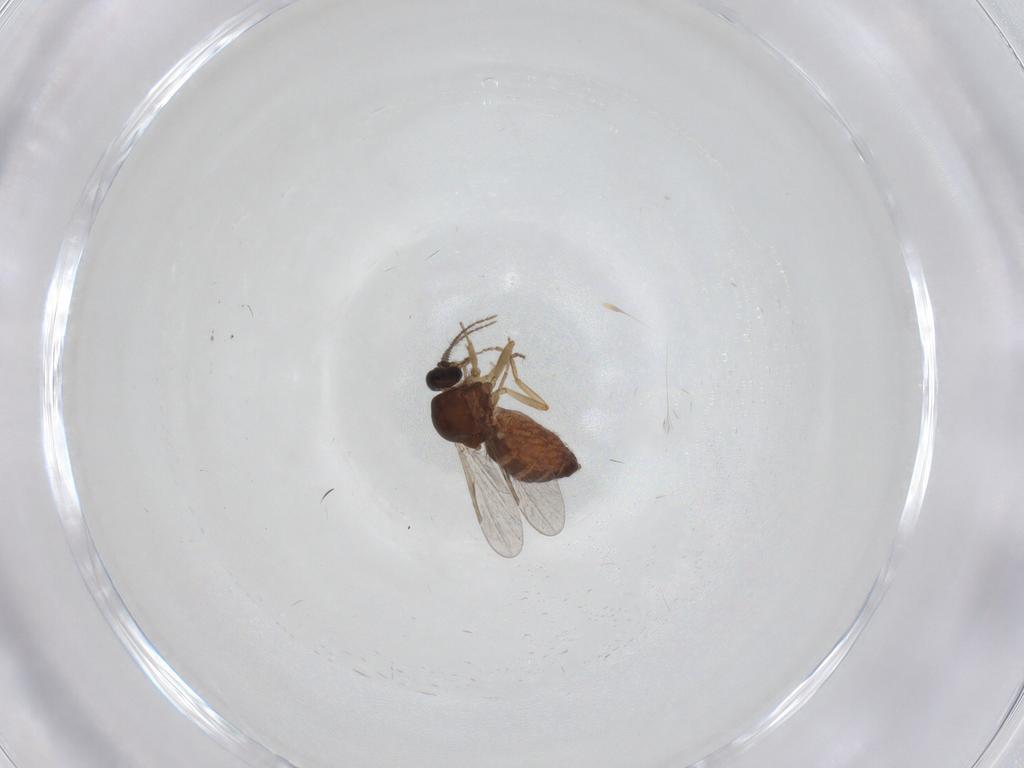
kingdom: Animalia
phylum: Arthropoda
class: Insecta
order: Diptera
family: Ceratopogonidae
